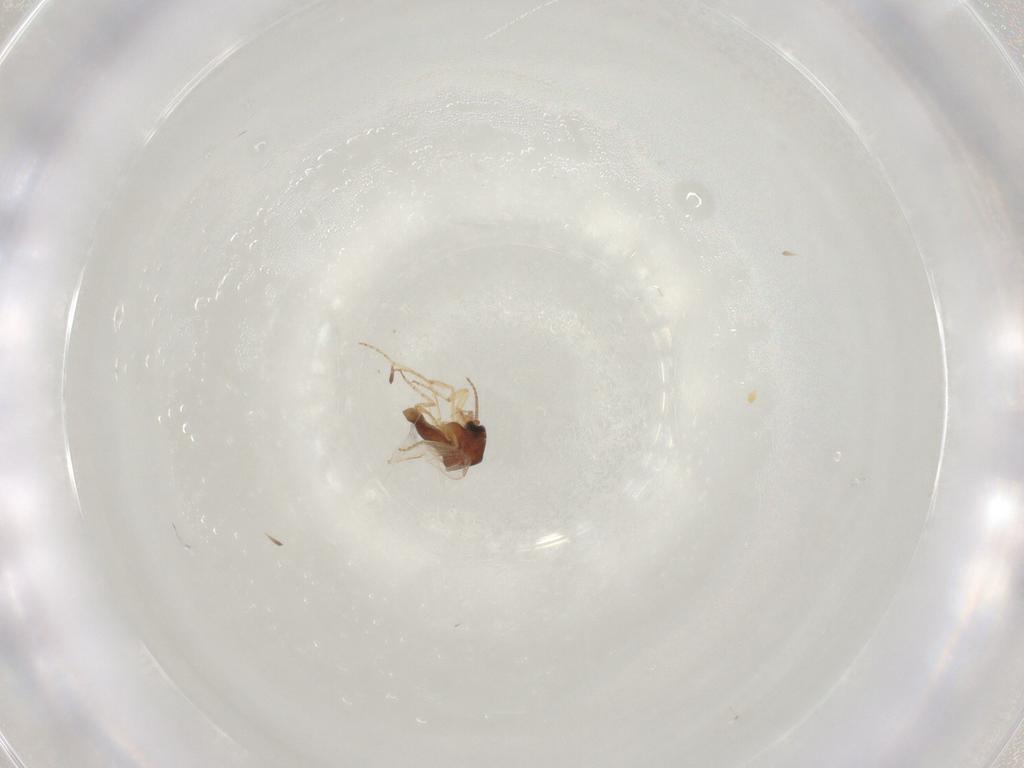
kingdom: Animalia
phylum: Arthropoda
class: Insecta
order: Diptera
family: Ceratopogonidae
